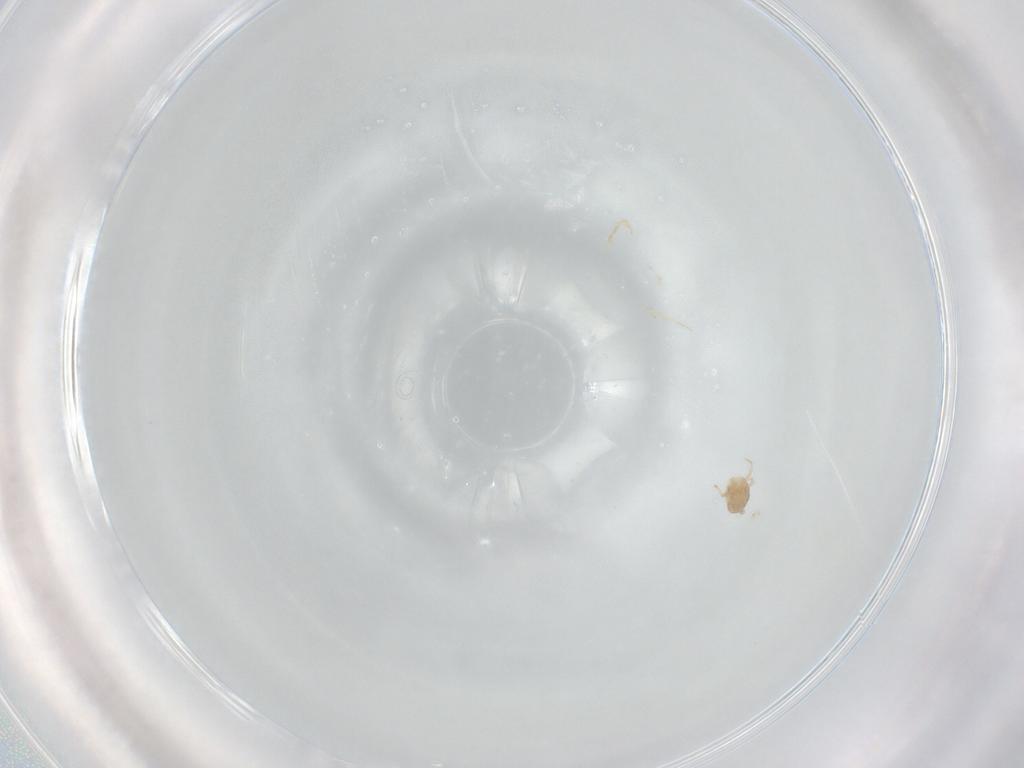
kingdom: Animalia
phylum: Arthropoda
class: Arachnida
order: Mesostigmata
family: Melicharidae
